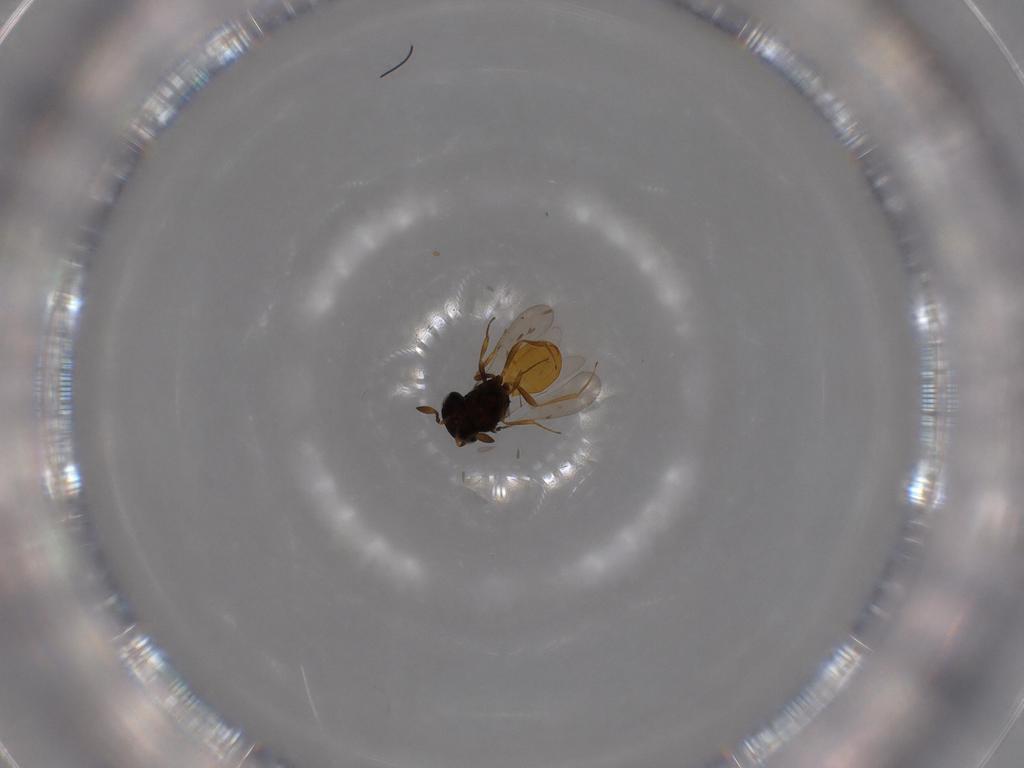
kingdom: Animalia
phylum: Arthropoda
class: Insecta
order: Hymenoptera
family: Scelionidae
